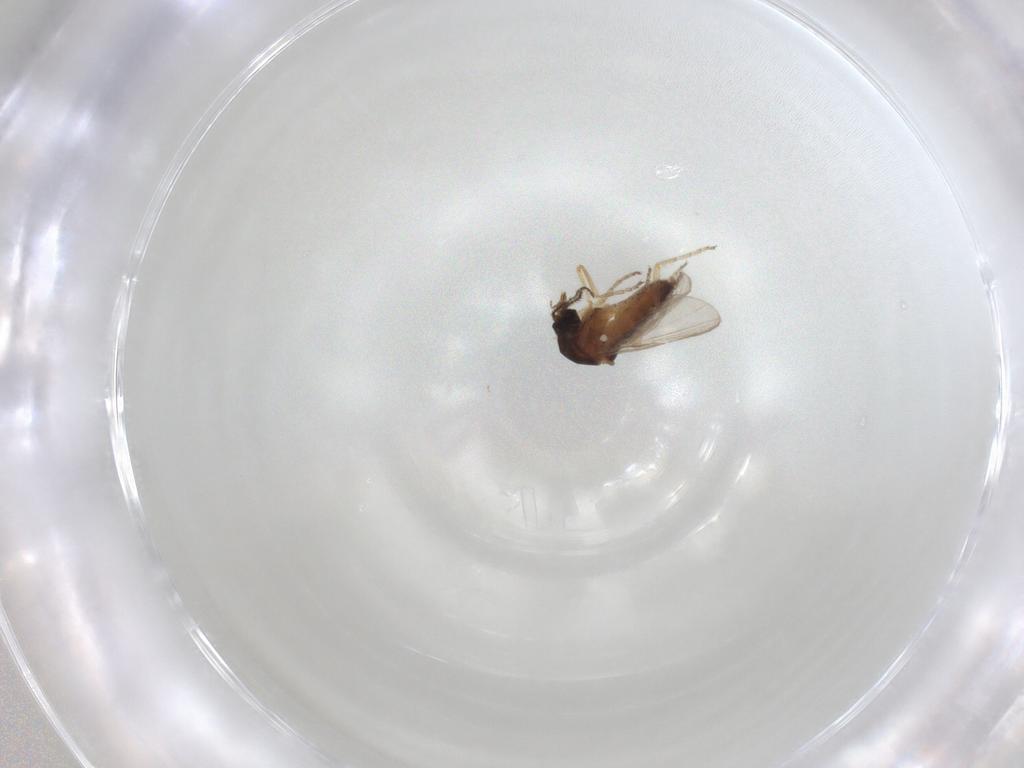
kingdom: Animalia
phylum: Arthropoda
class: Insecta
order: Diptera
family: Ceratopogonidae
